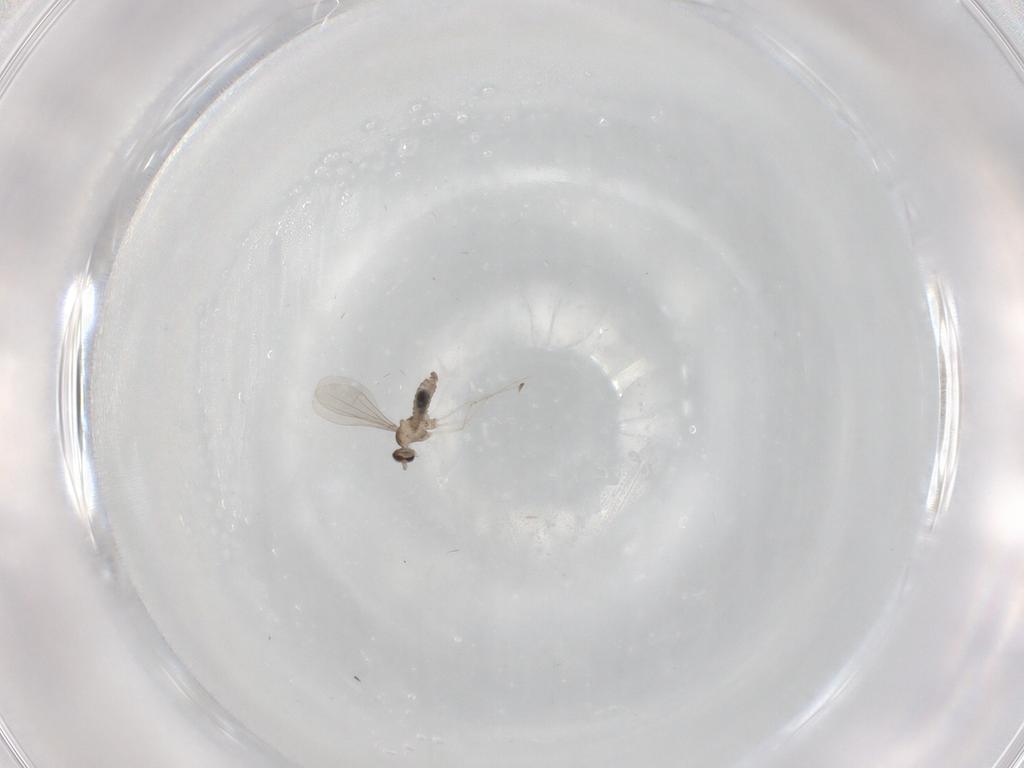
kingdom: Animalia
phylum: Arthropoda
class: Insecta
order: Diptera
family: Cecidomyiidae
